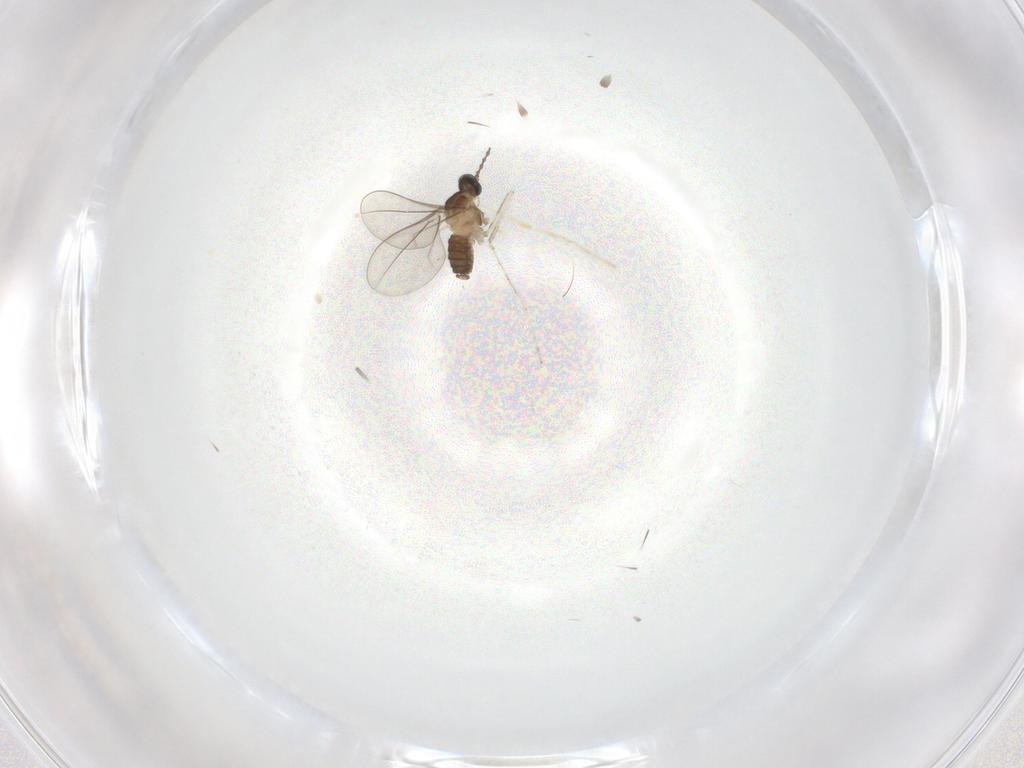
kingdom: Animalia
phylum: Arthropoda
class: Insecta
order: Diptera
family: Cecidomyiidae
